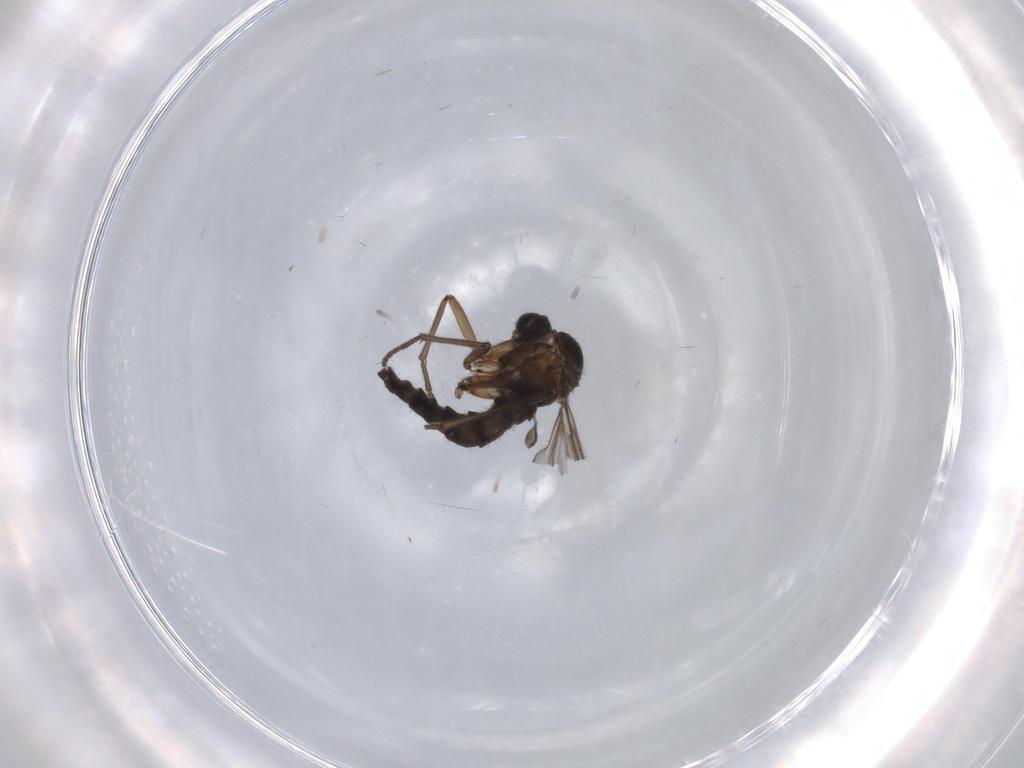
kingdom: Animalia
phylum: Arthropoda
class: Insecta
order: Diptera
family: Sciaridae
